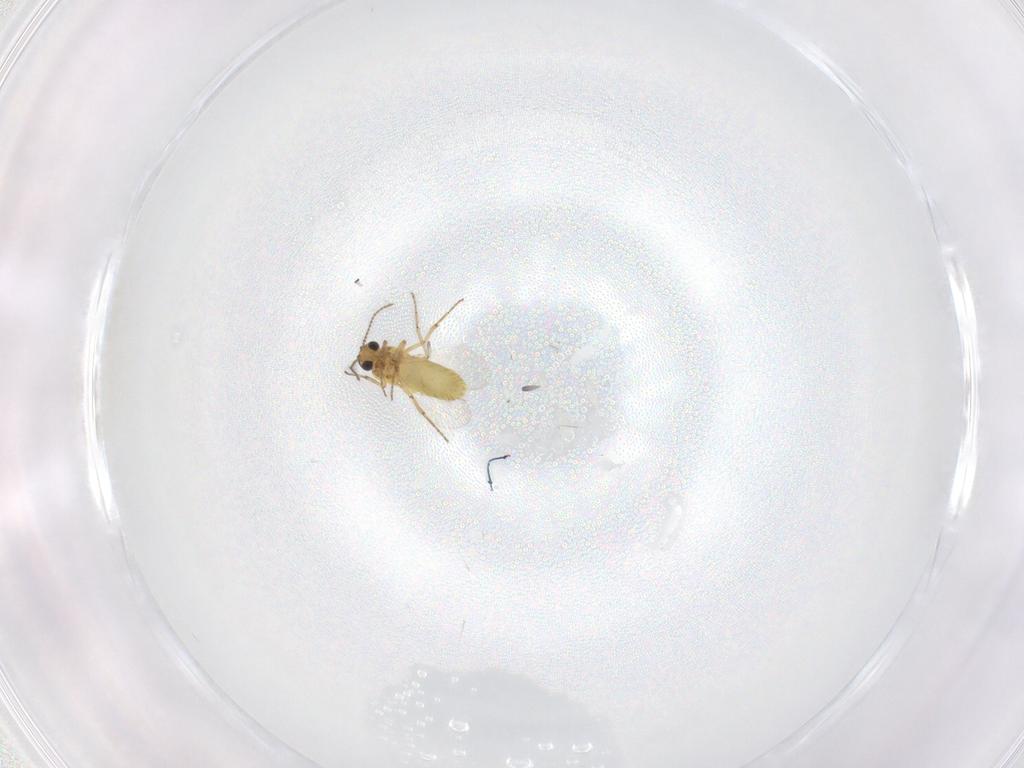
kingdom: Animalia
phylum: Arthropoda
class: Insecta
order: Diptera
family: Ceratopogonidae
